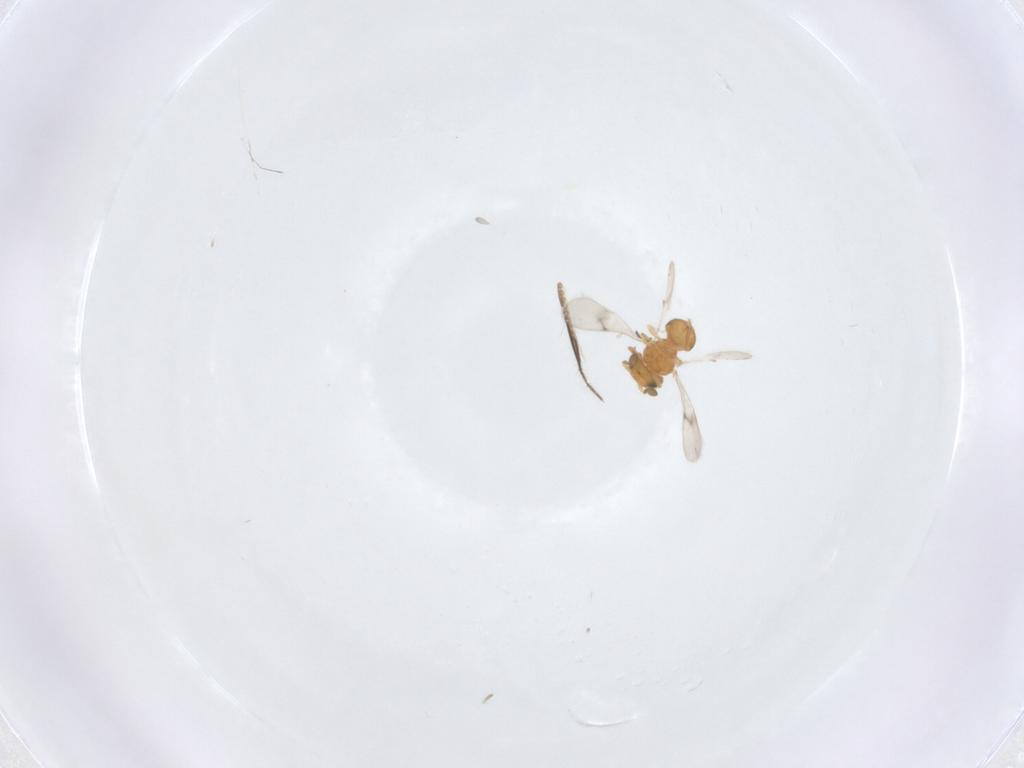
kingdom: Animalia
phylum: Arthropoda
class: Insecta
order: Hymenoptera
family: Scelionidae
